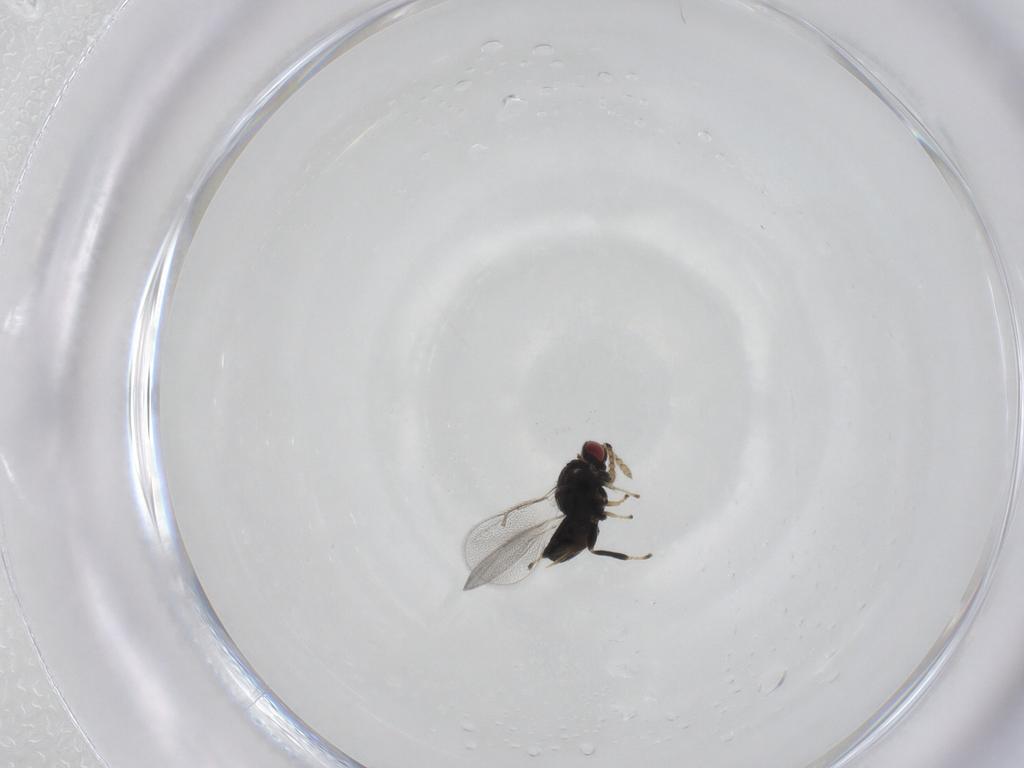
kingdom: Animalia
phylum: Arthropoda
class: Insecta
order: Hymenoptera
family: Eulophidae
